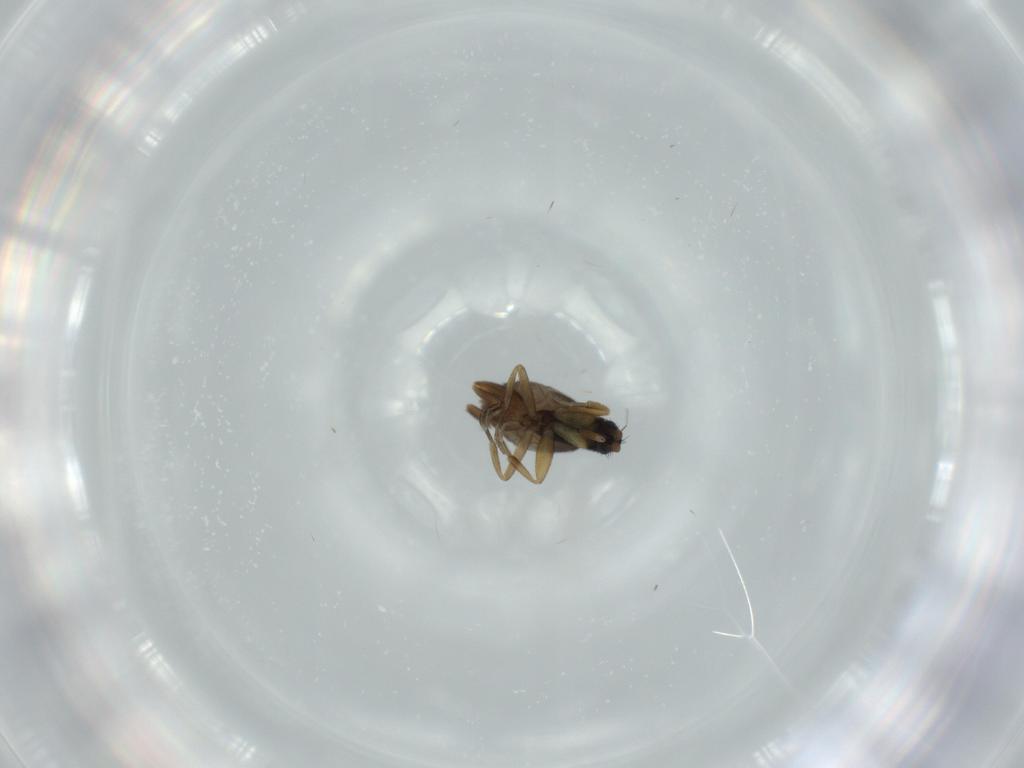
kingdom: Animalia
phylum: Arthropoda
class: Insecta
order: Diptera
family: Phoridae
